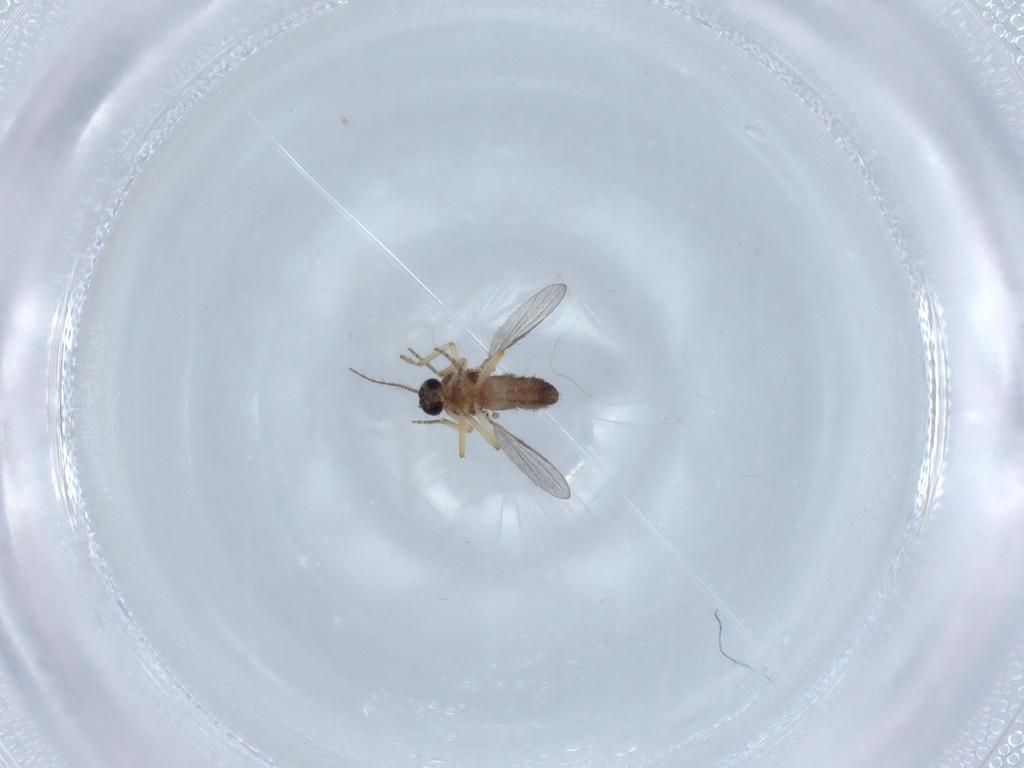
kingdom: Animalia
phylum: Arthropoda
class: Insecta
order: Diptera
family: Ceratopogonidae
